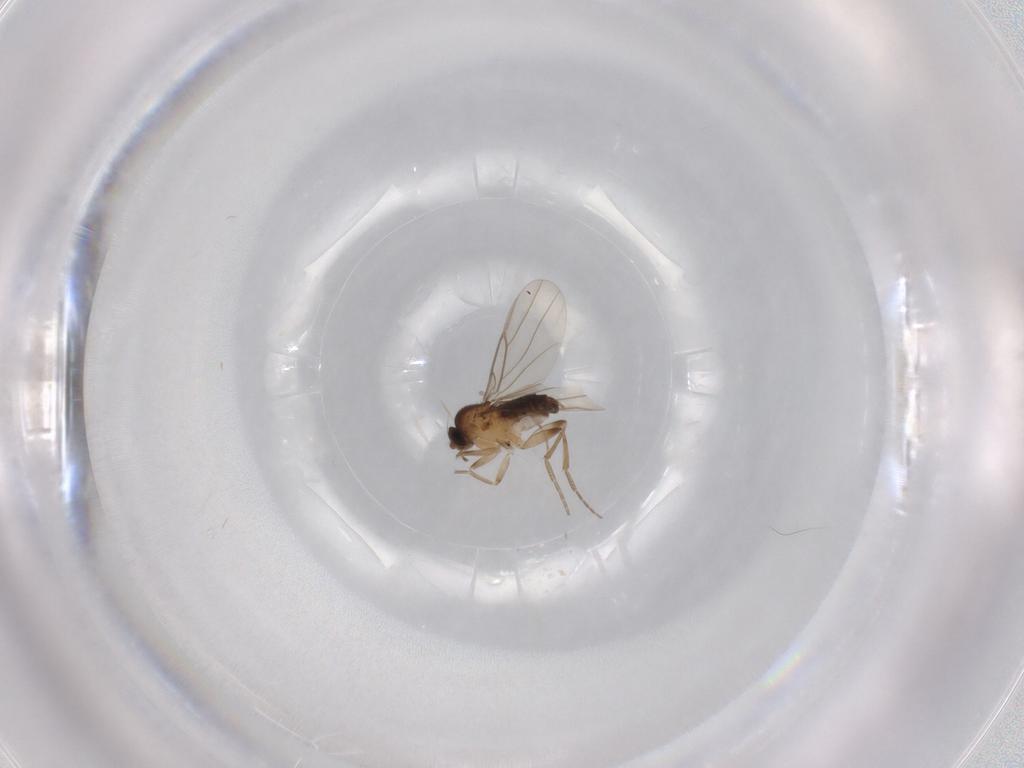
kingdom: Animalia
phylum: Arthropoda
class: Insecta
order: Diptera
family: Phoridae
